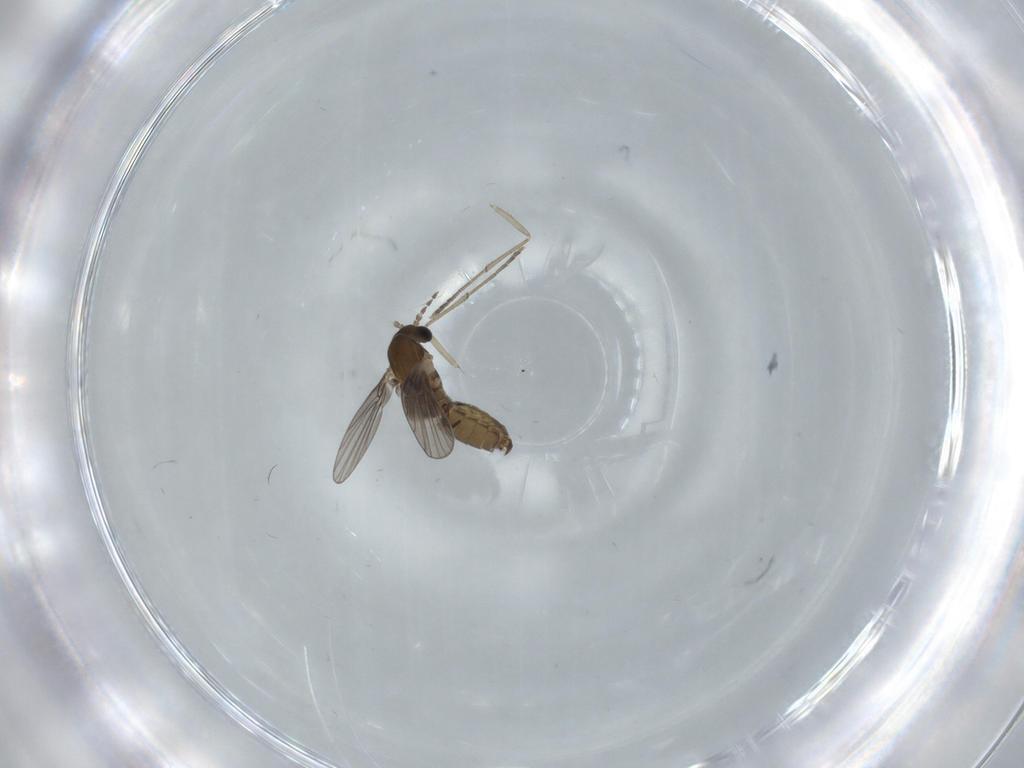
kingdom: Animalia
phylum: Arthropoda
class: Insecta
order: Diptera
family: Psychodidae
